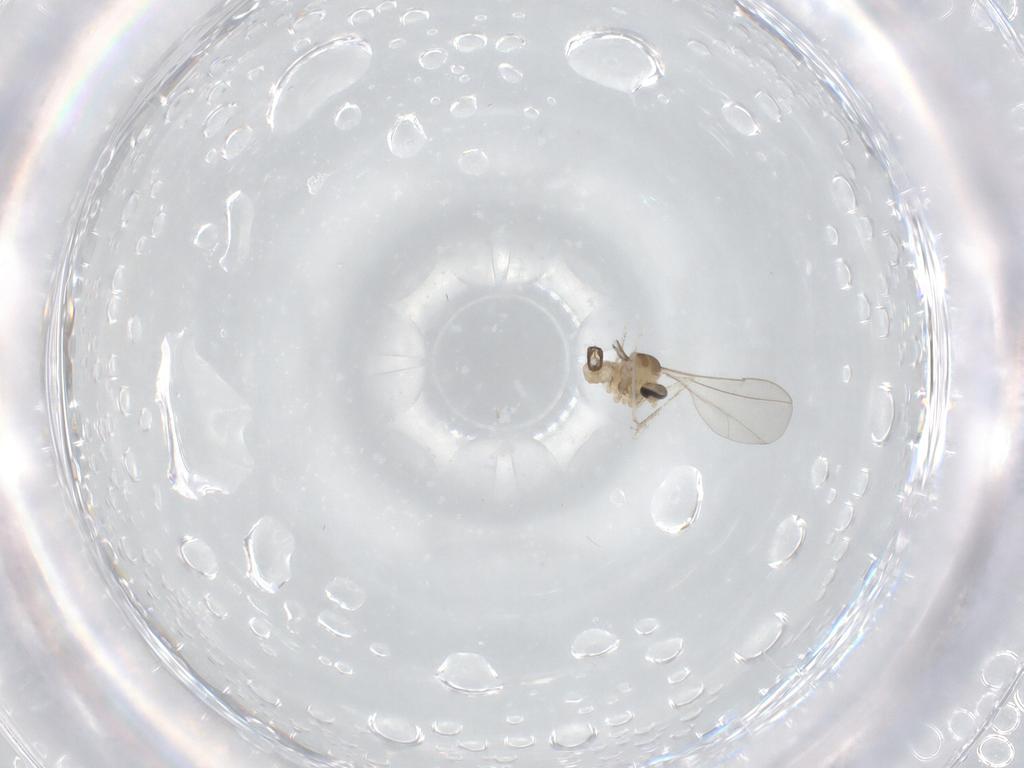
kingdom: Animalia
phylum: Arthropoda
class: Insecta
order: Diptera
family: Cecidomyiidae
